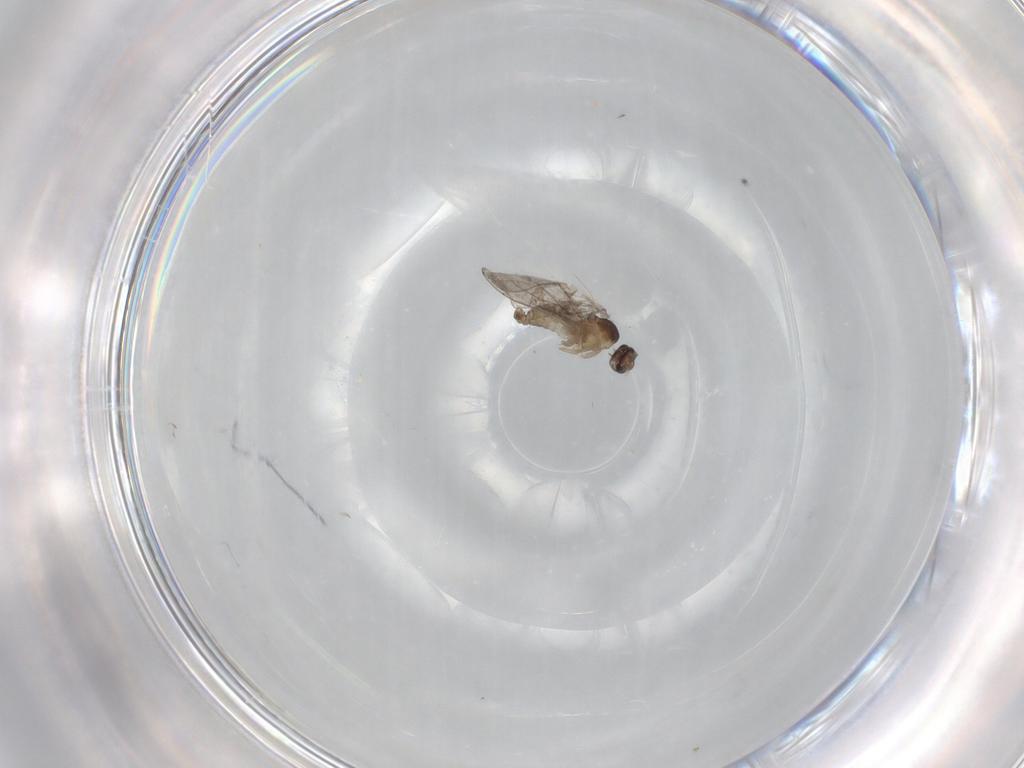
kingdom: Animalia
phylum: Arthropoda
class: Insecta
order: Diptera
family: Cecidomyiidae
